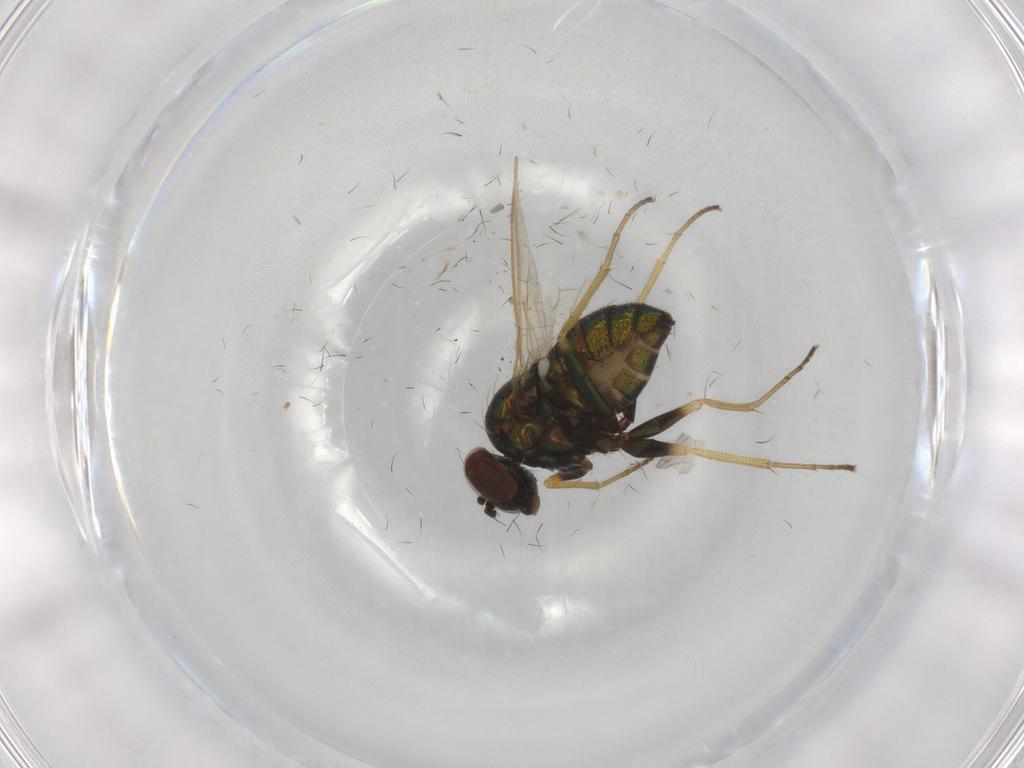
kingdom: Animalia
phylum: Arthropoda
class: Insecta
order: Diptera
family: Dolichopodidae
